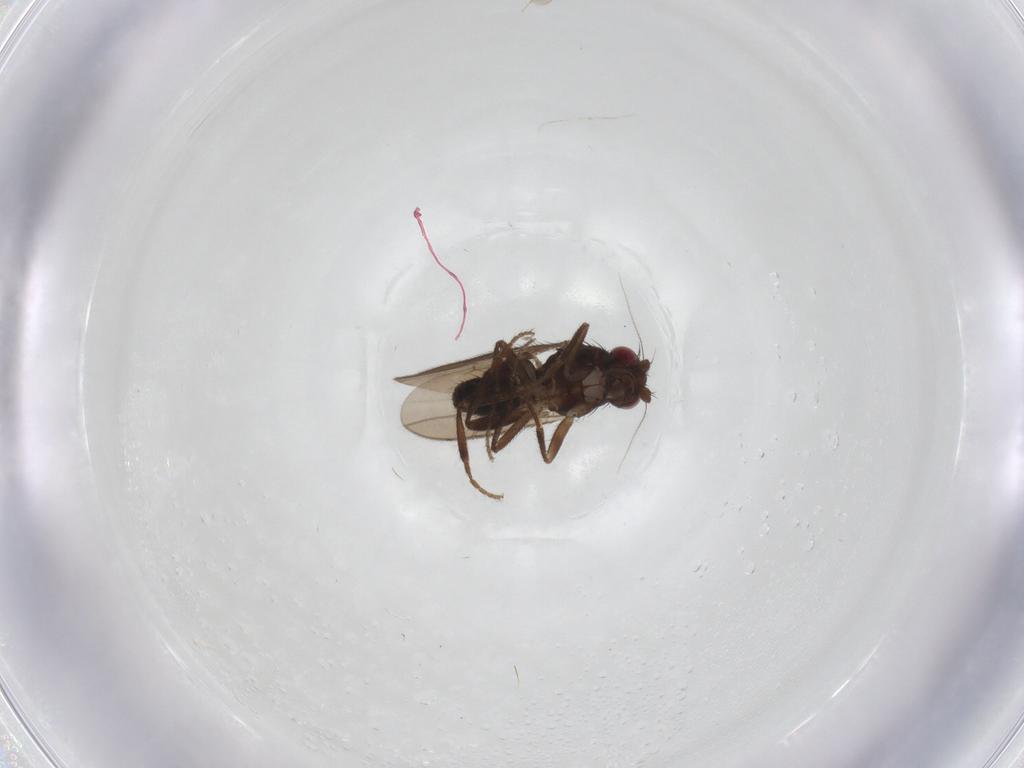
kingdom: Animalia
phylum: Arthropoda
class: Insecta
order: Diptera
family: Sphaeroceridae
